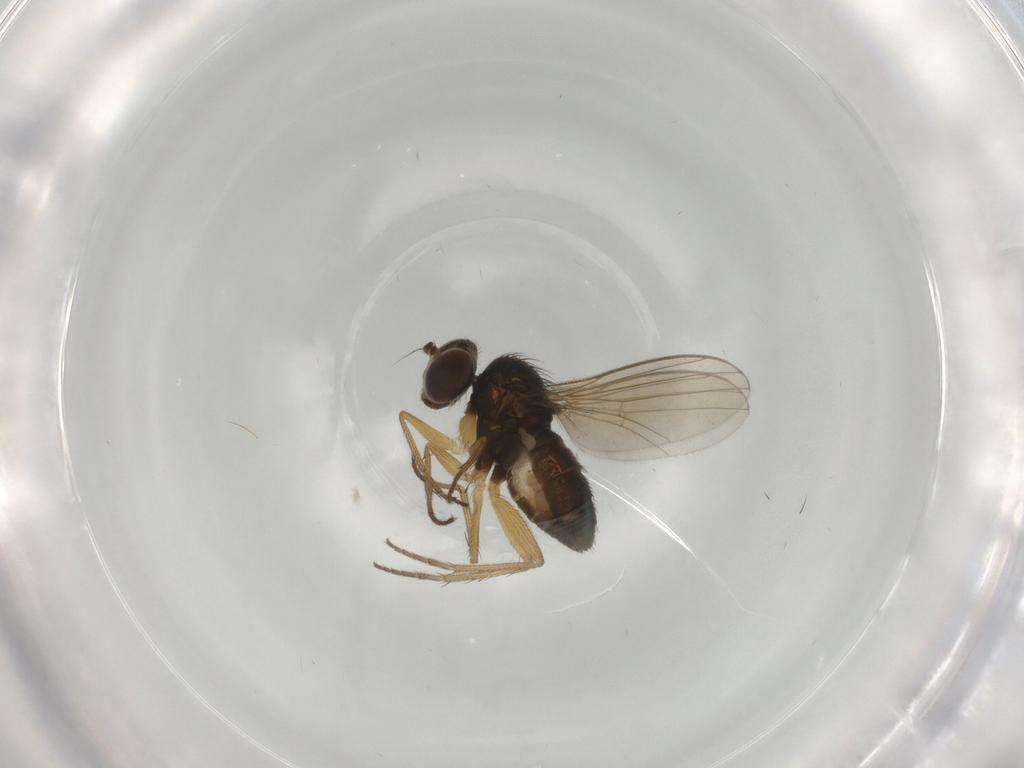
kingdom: Animalia
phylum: Arthropoda
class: Insecta
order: Diptera
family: Dolichopodidae
